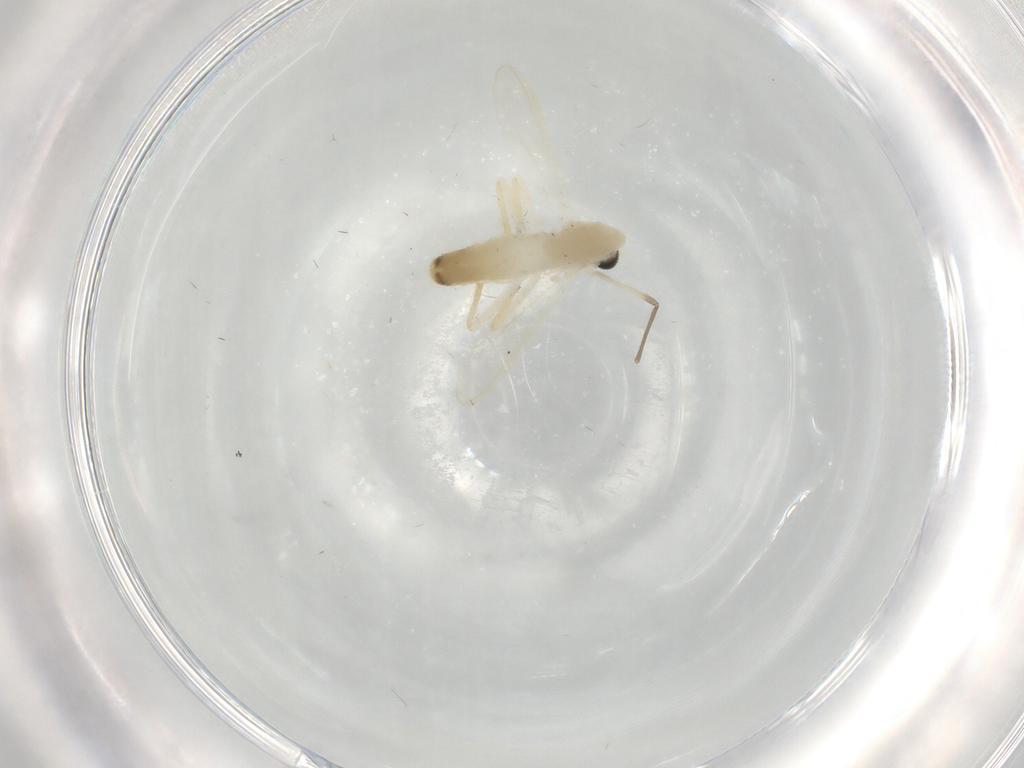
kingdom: Animalia
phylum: Arthropoda
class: Insecta
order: Diptera
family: Chironomidae
